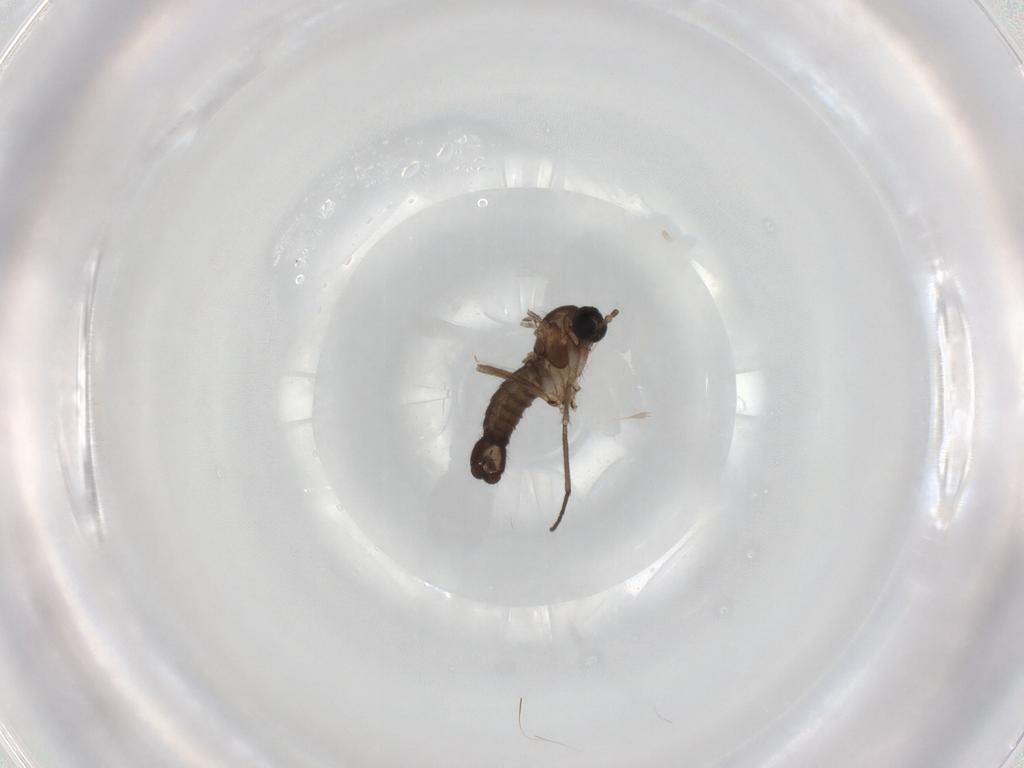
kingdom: Animalia
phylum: Arthropoda
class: Insecta
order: Diptera
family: Sciaridae
